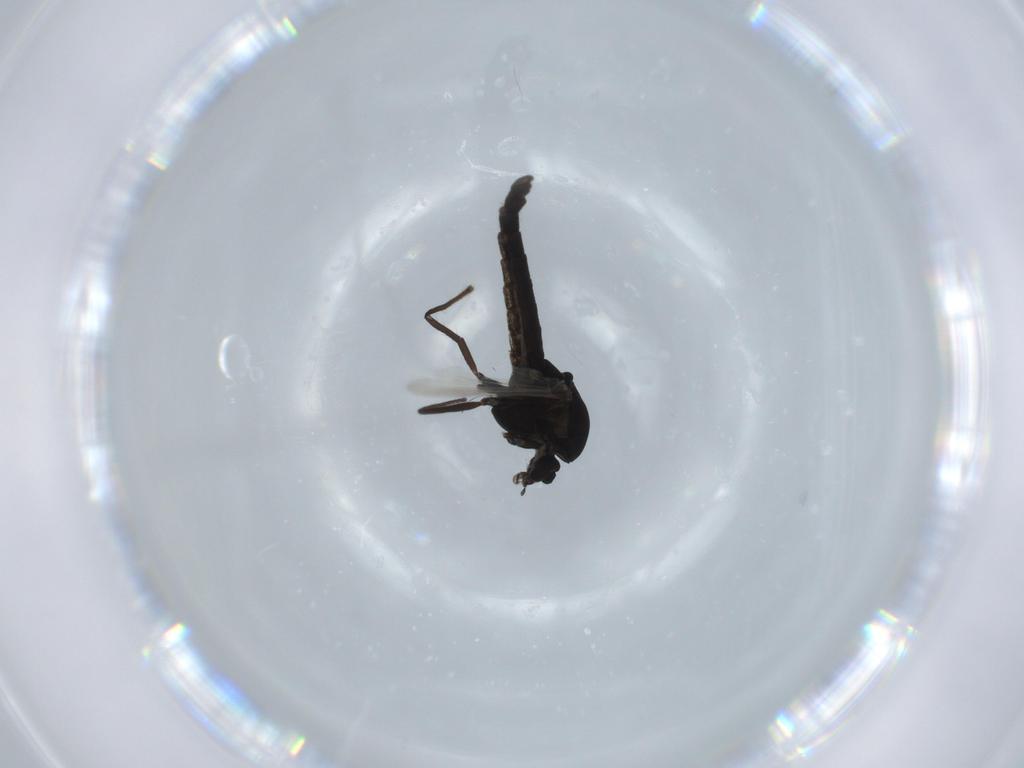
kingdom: Animalia
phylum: Arthropoda
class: Insecta
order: Diptera
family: Chironomidae
